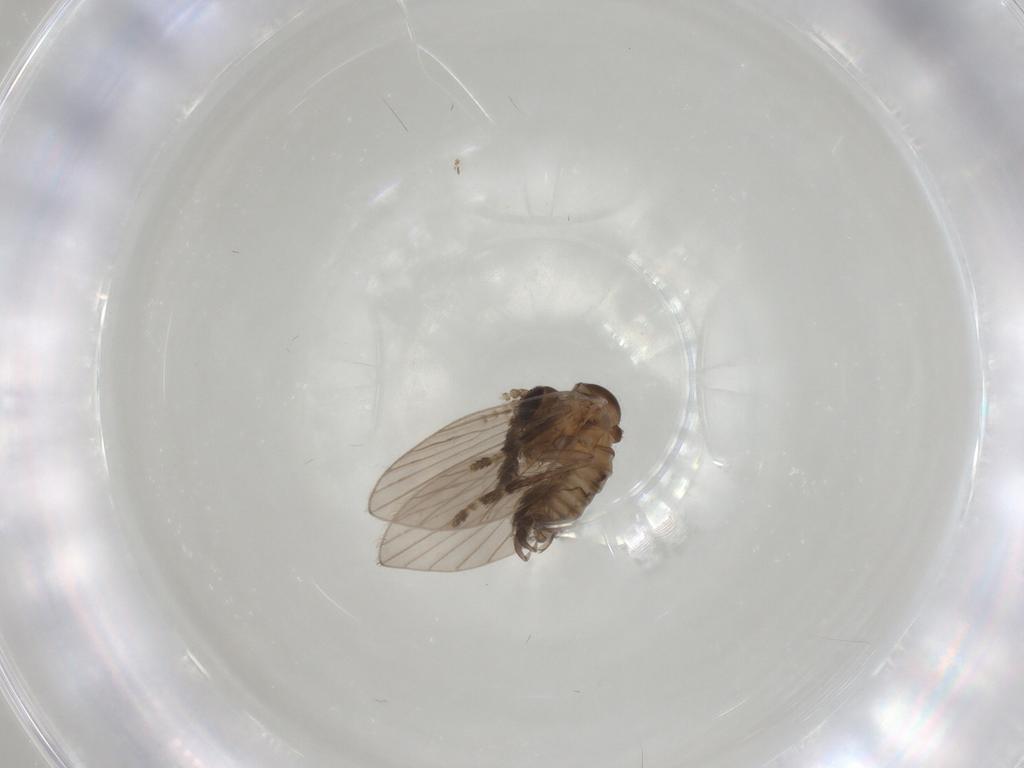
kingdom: Animalia
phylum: Arthropoda
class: Insecta
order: Diptera
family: Psychodidae
